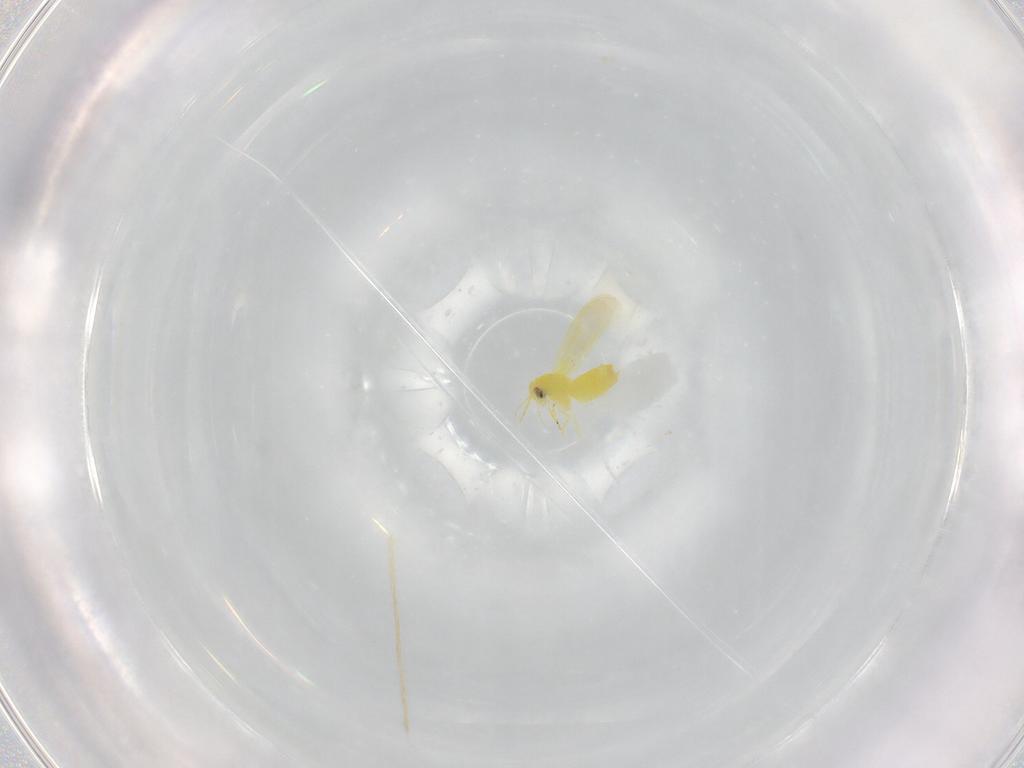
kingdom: Animalia
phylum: Arthropoda
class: Insecta
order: Hemiptera
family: Aleyrodidae
